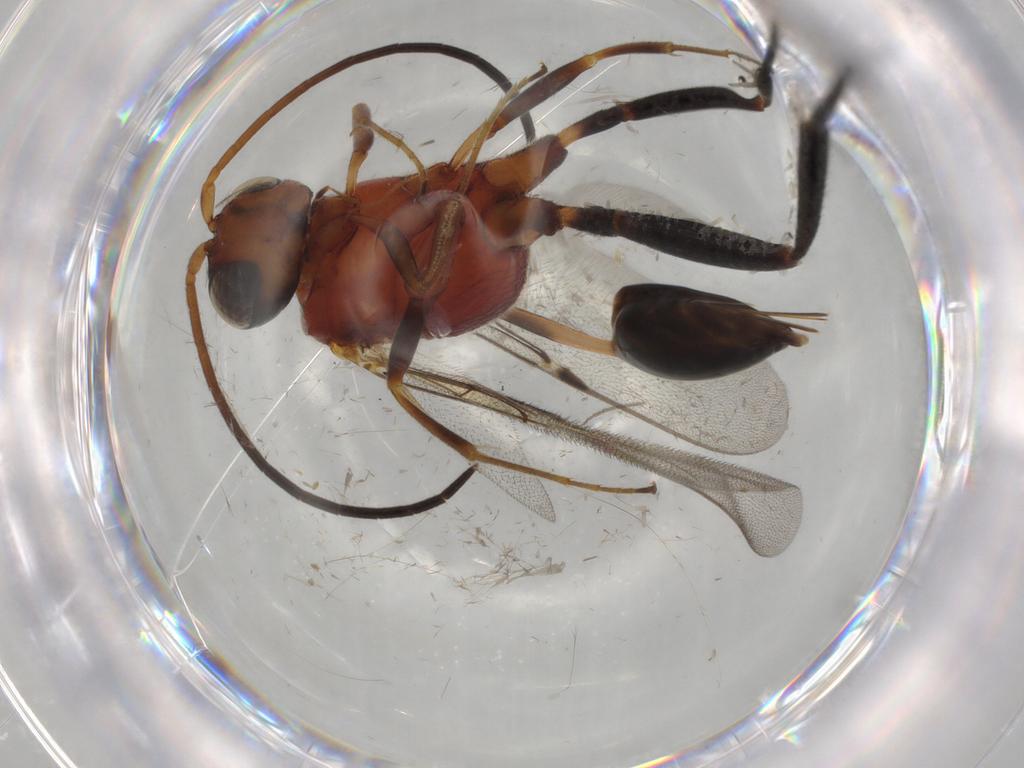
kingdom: Animalia
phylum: Arthropoda
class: Insecta
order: Hymenoptera
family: Evaniidae
